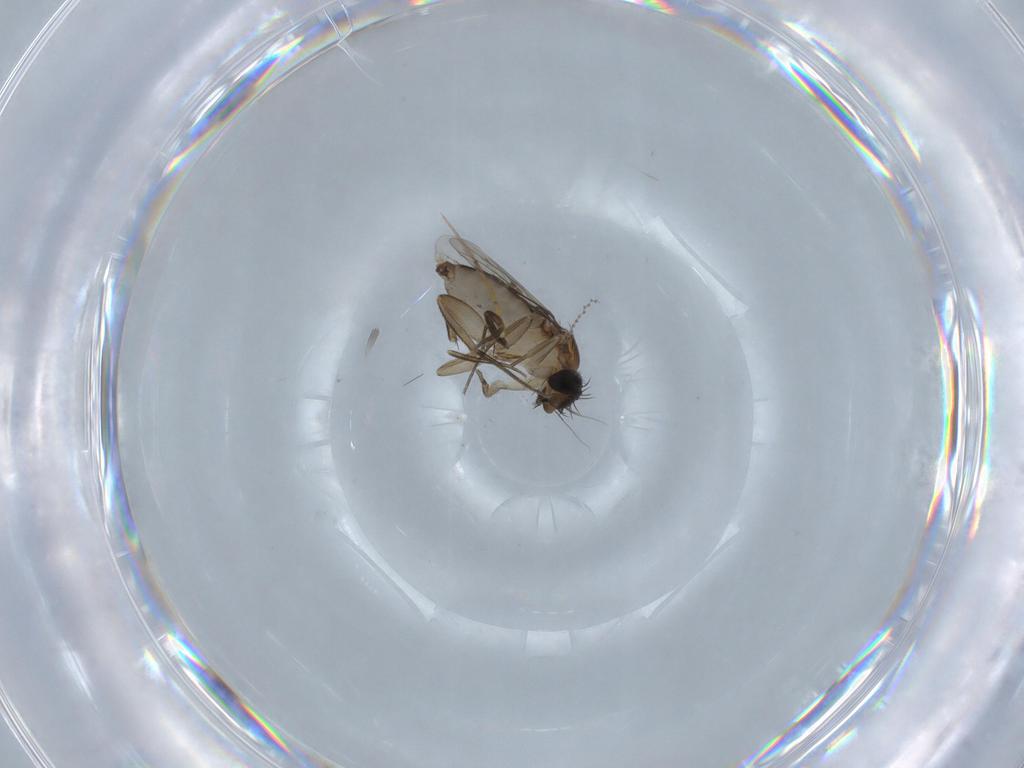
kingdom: Animalia
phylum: Arthropoda
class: Insecta
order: Diptera
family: Phoridae
